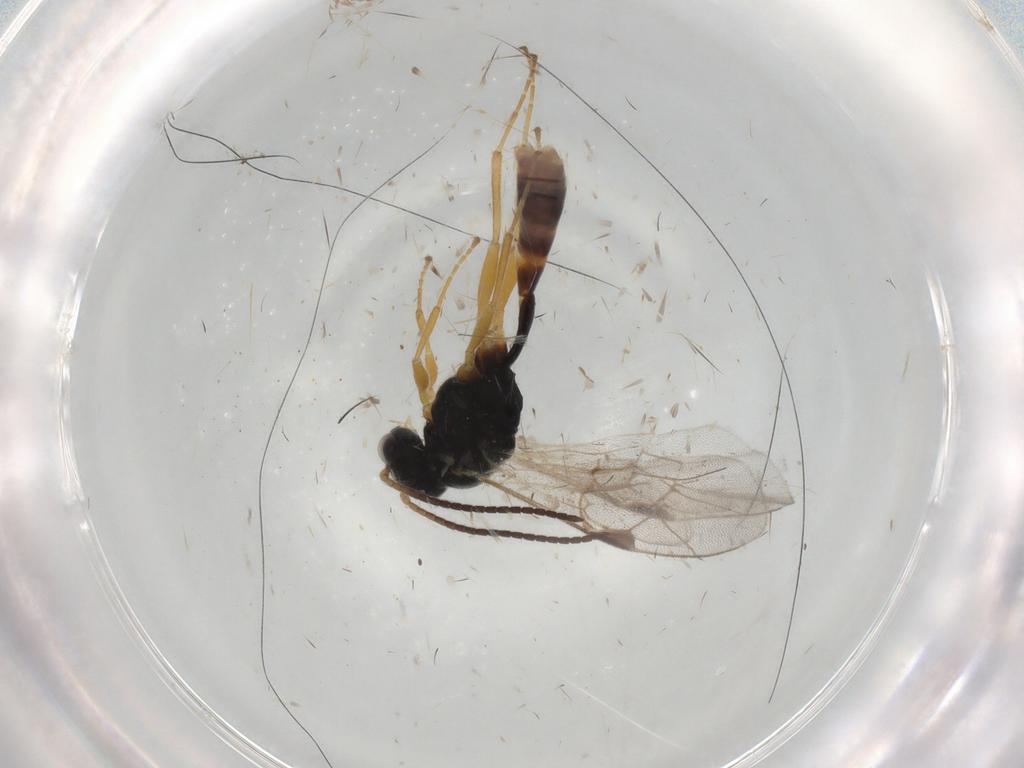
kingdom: Animalia
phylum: Arthropoda
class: Insecta
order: Hymenoptera
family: Ichneumonidae
